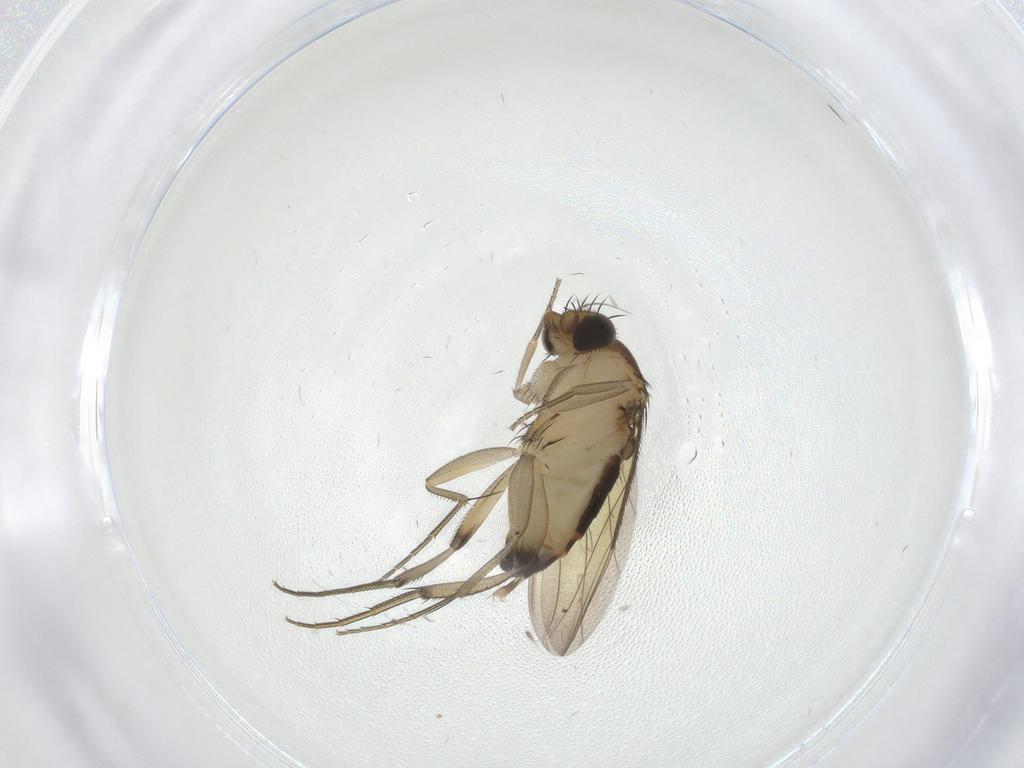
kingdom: Animalia
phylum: Arthropoda
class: Insecta
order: Diptera
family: Phoridae
